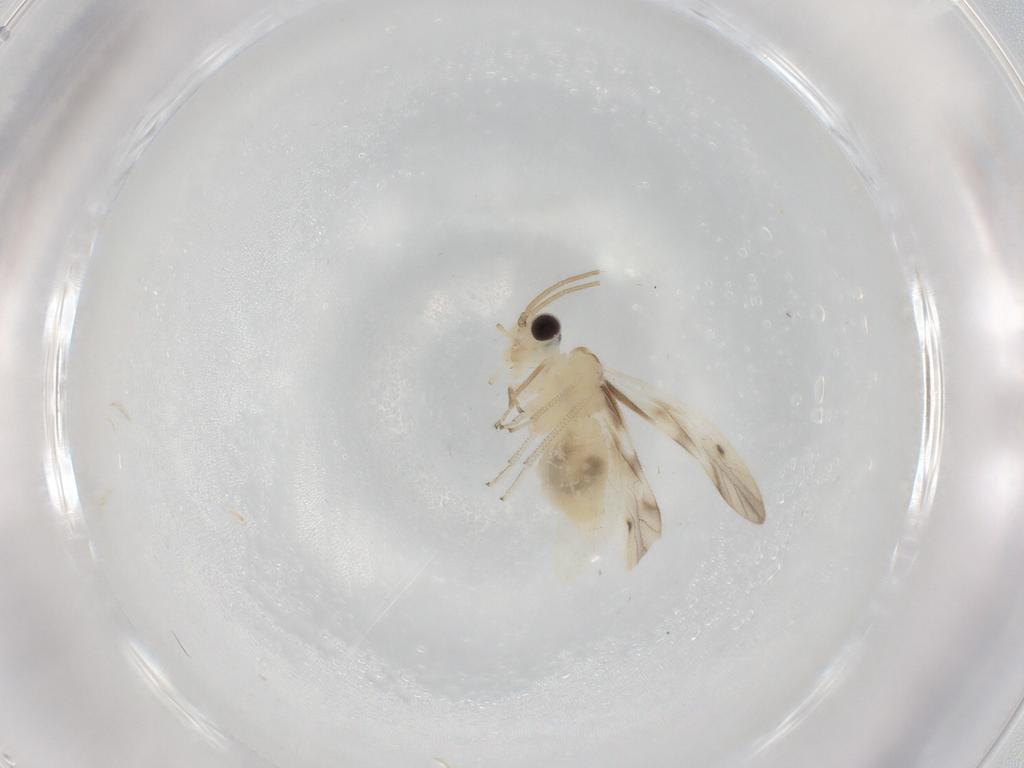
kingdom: Animalia
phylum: Arthropoda
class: Insecta
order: Psocodea
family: Caeciliusidae
